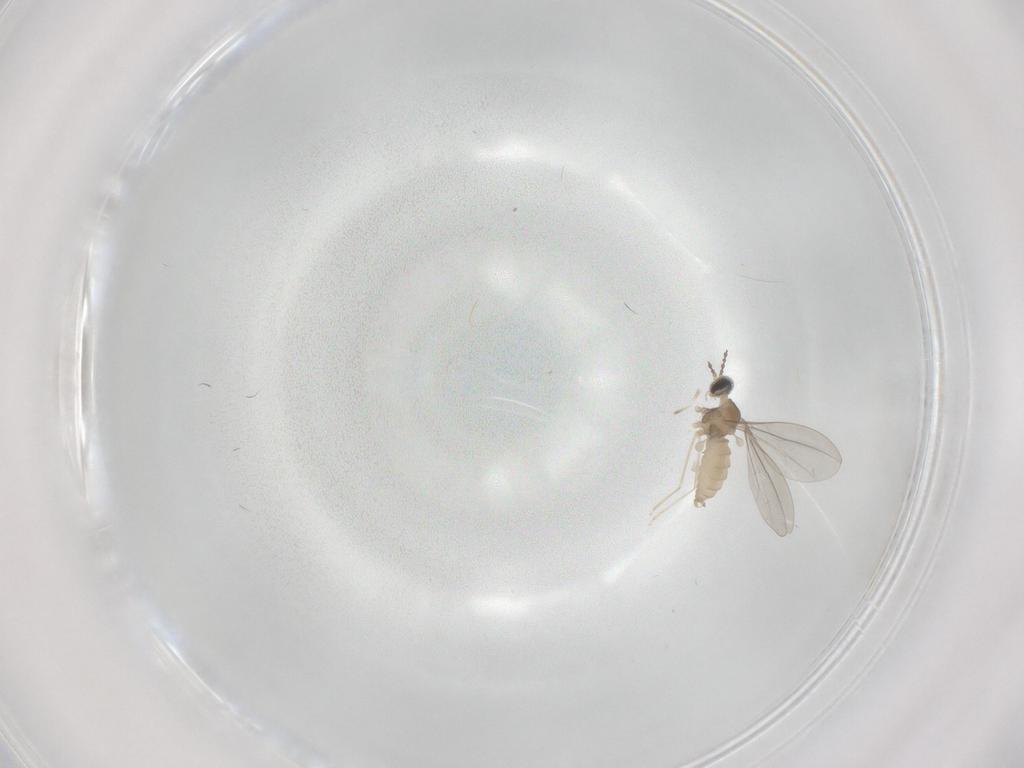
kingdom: Animalia
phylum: Arthropoda
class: Insecta
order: Diptera
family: Cecidomyiidae
